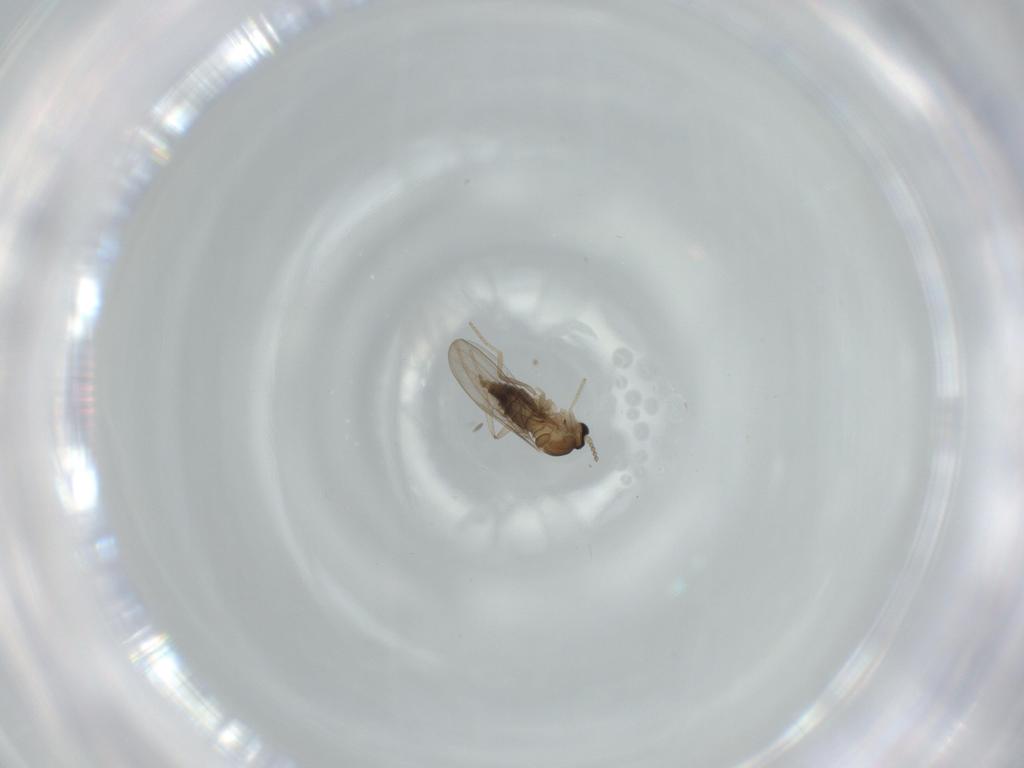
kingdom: Animalia
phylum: Arthropoda
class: Insecta
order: Diptera
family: Cecidomyiidae
